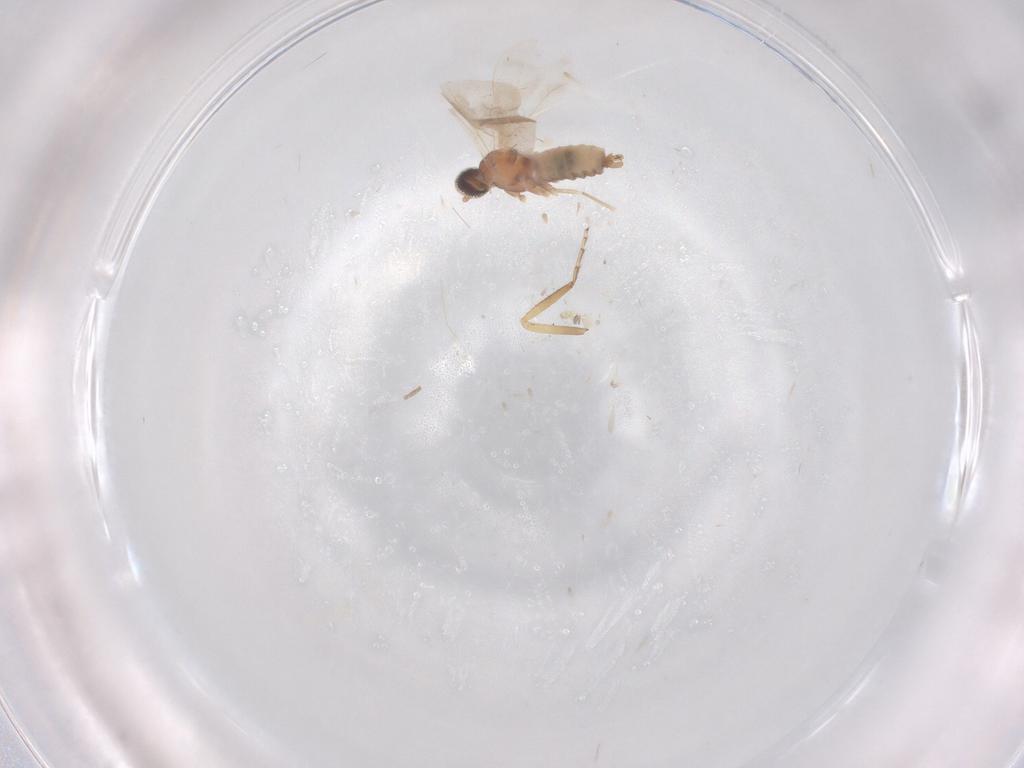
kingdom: Animalia
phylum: Arthropoda
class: Insecta
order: Diptera
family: Cecidomyiidae
